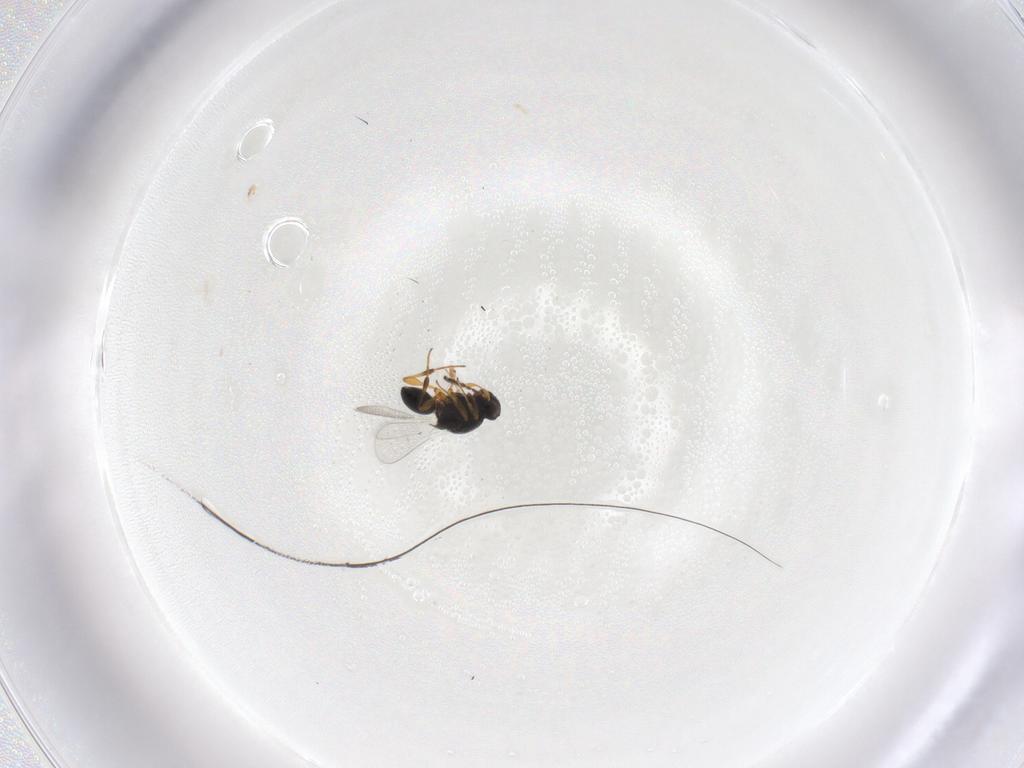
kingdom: Animalia
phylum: Arthropoda
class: Insecta
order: Hymenoptera
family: Platygastridae
